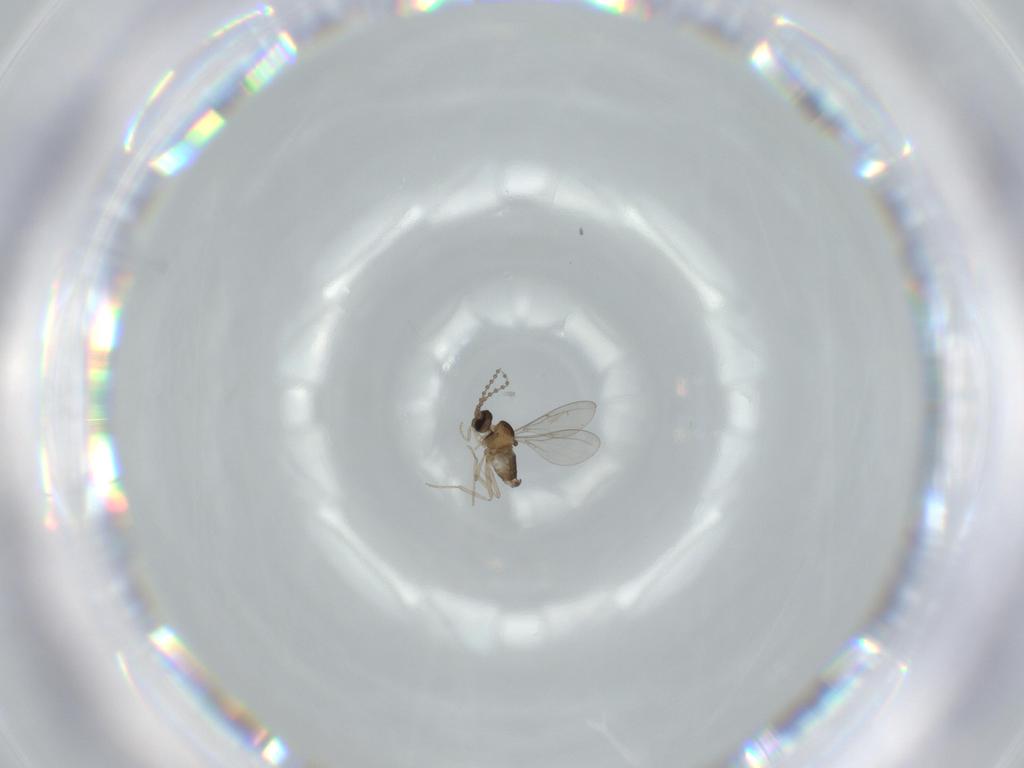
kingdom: Animalia
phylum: Arthropoda
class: Insecta
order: Diptera
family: Cecidomyiidae
